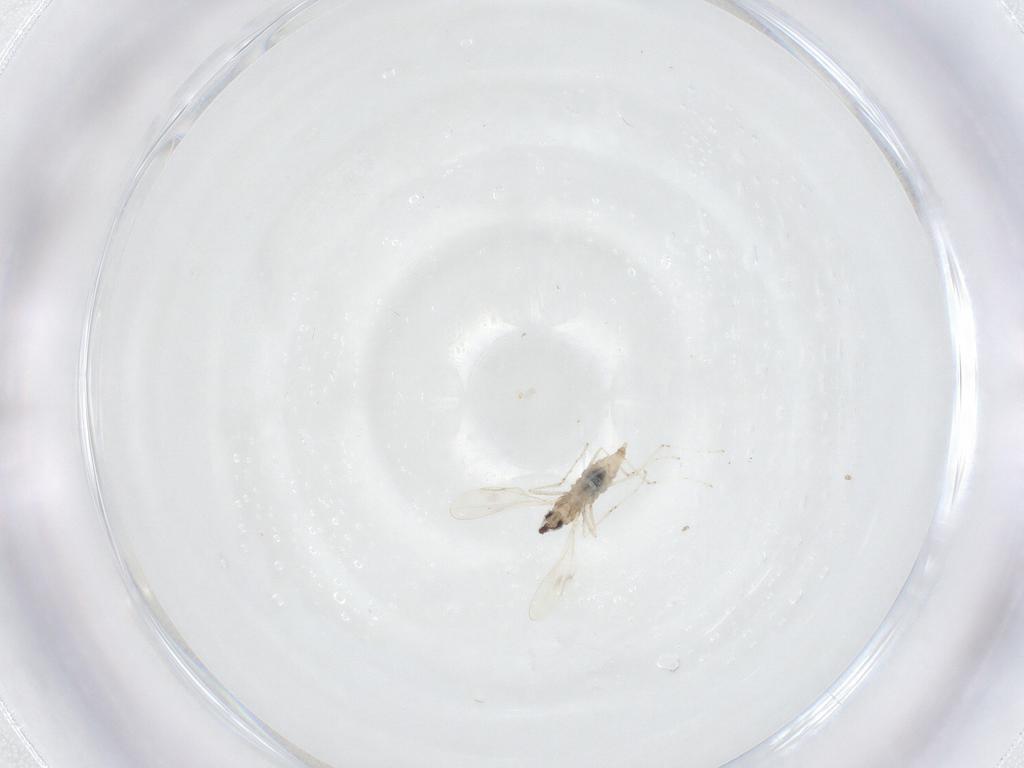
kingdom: Animalia
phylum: Arthropoda
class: Insecta
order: Diptera
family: Cecidomyiidae
